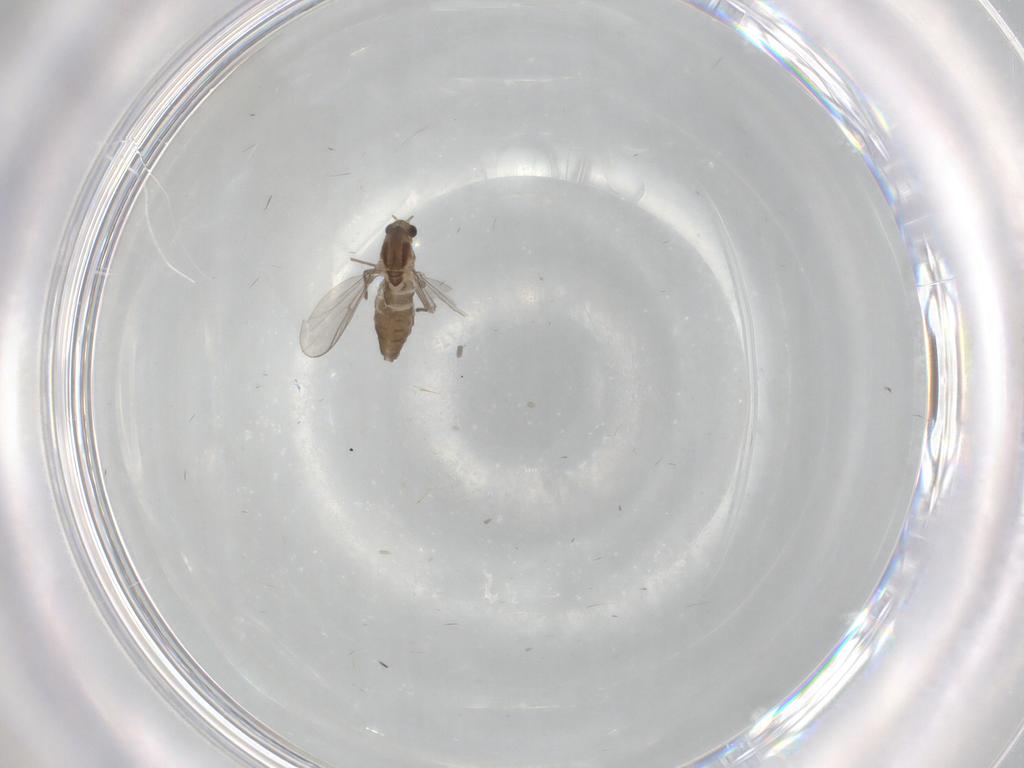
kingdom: Animalia
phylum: Arthropoda
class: Insecta
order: Diptera
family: Chironomidae
